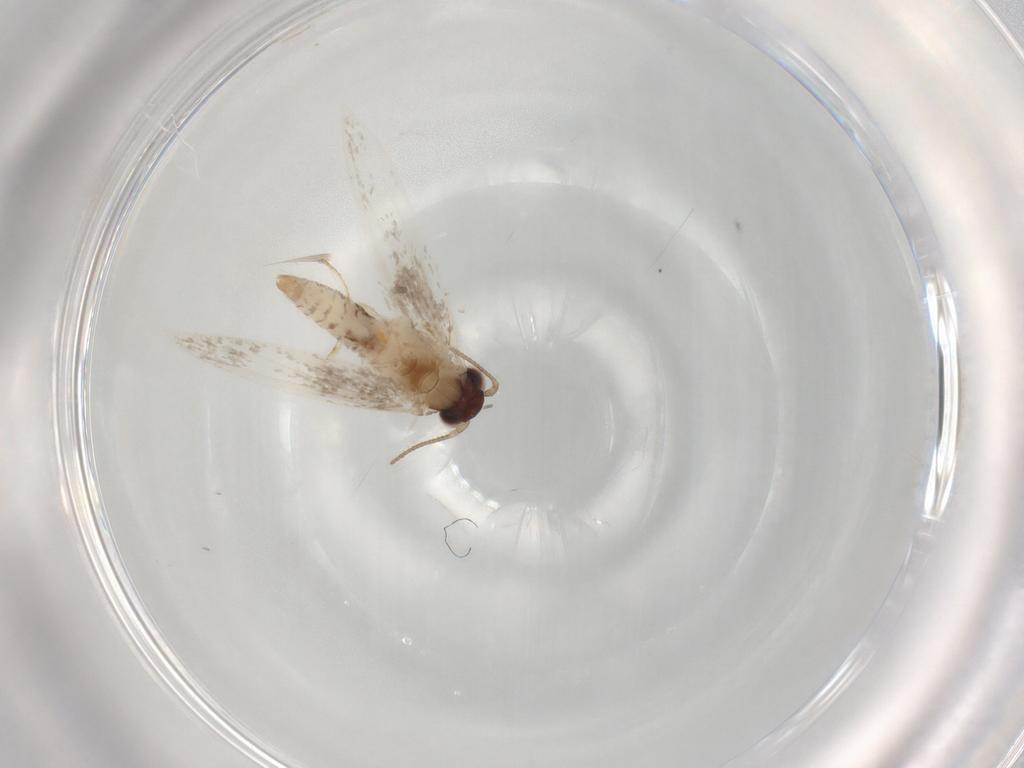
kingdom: Animalia
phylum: Arthropoda
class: Insecta
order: Lepidoptera
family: Tineidae
